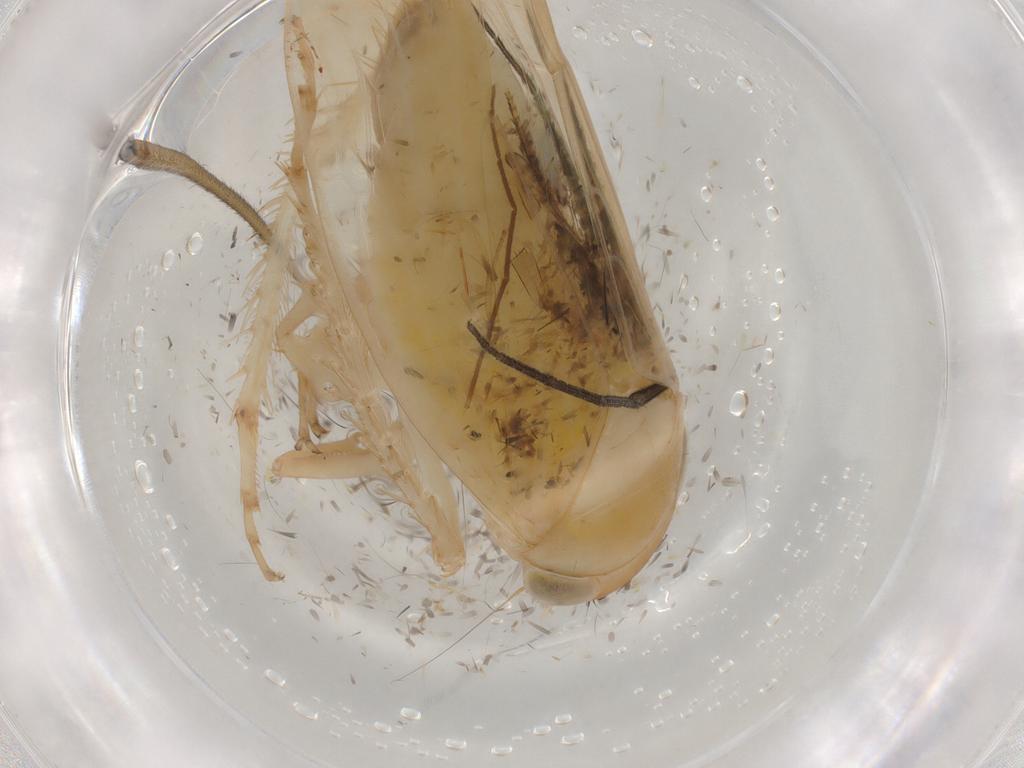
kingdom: Animalia
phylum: Arthropoda
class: Insecta
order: Hemiptera
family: Cicadellidae
